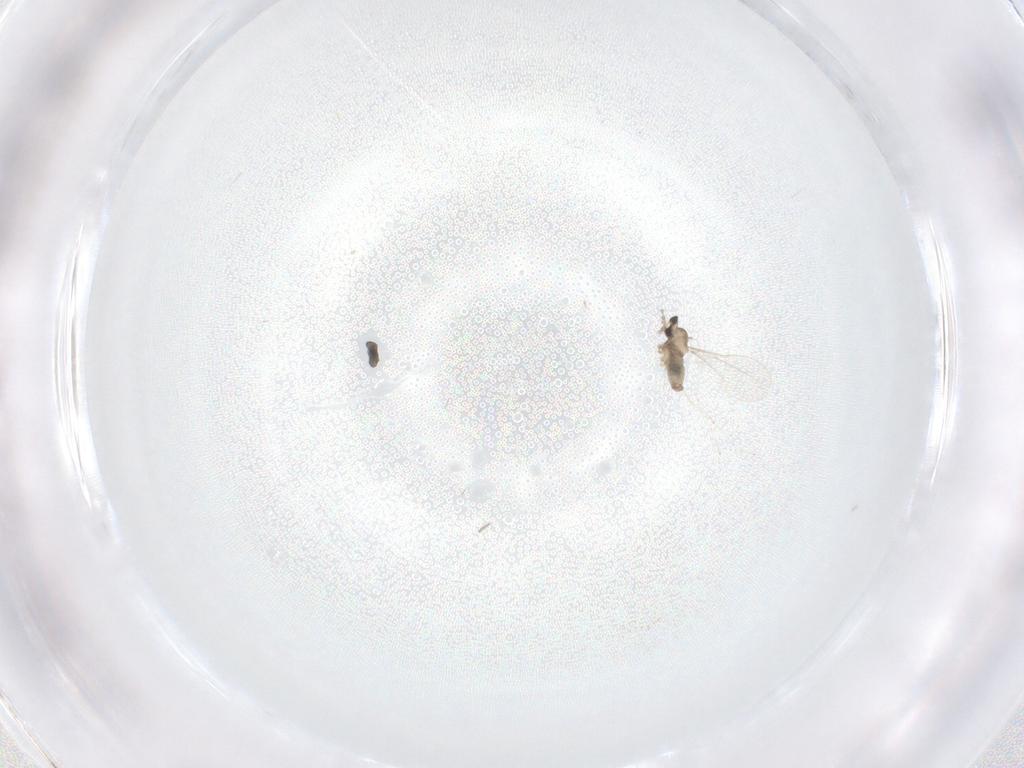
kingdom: Animalia
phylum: Arthropoda
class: Insecta
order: Diptera
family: Cecidomyiidae
